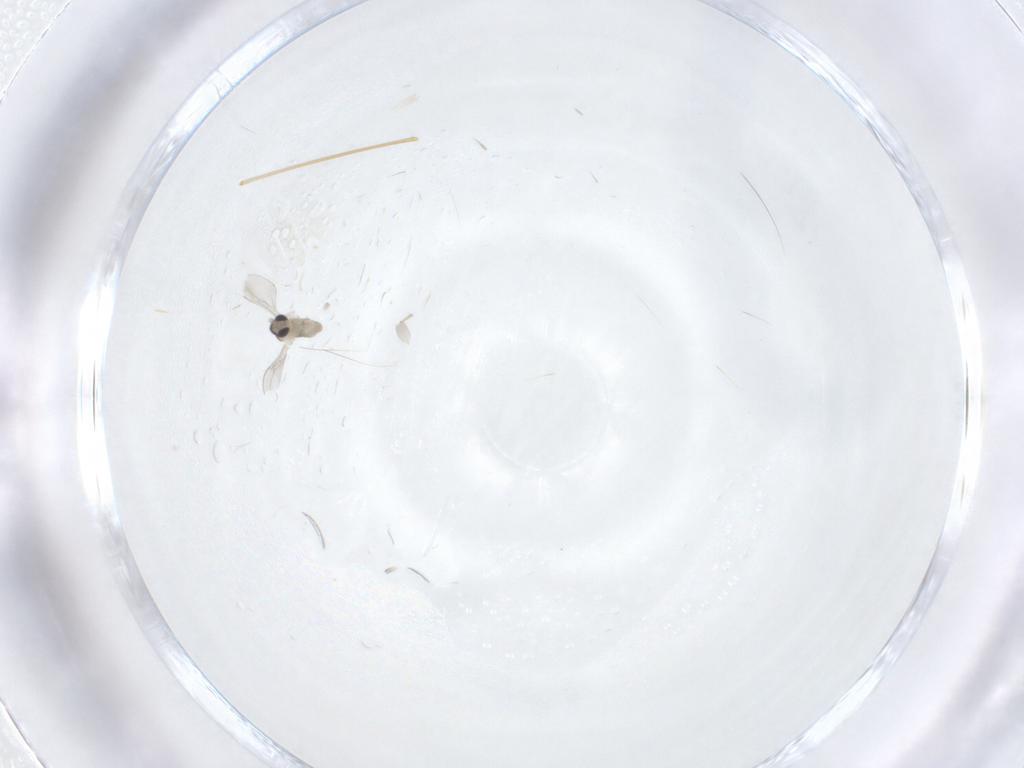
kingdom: Animalia
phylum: Arthropoda
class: Insecta
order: Diptera
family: Cecidomyiidae
